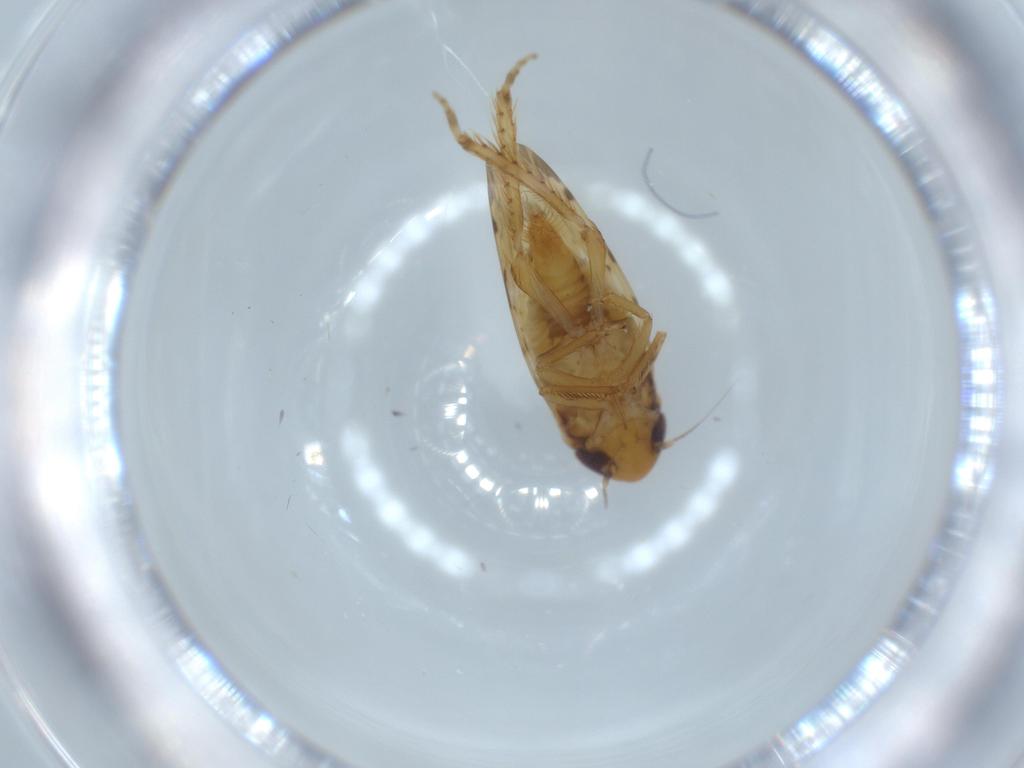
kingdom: Animalia
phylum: Arthropoda
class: Insecta
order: Hemiptera
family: Cicadellidae
